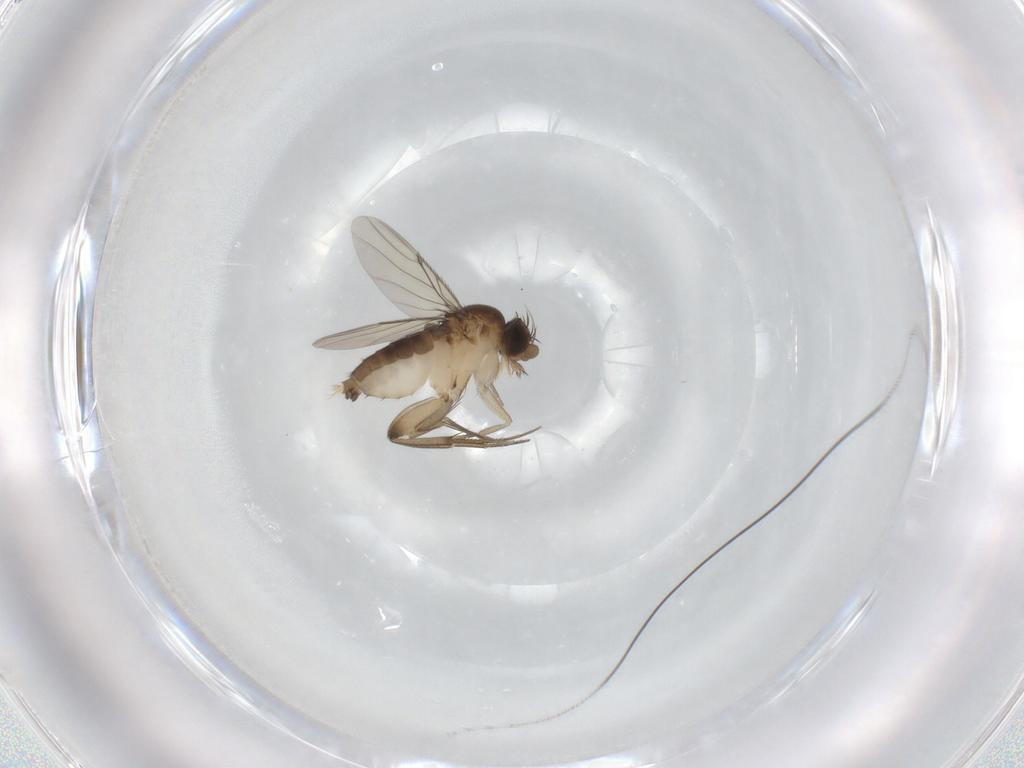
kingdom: Animalia
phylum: Arthropoda
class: Insecta
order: Diptera
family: Phoridae
